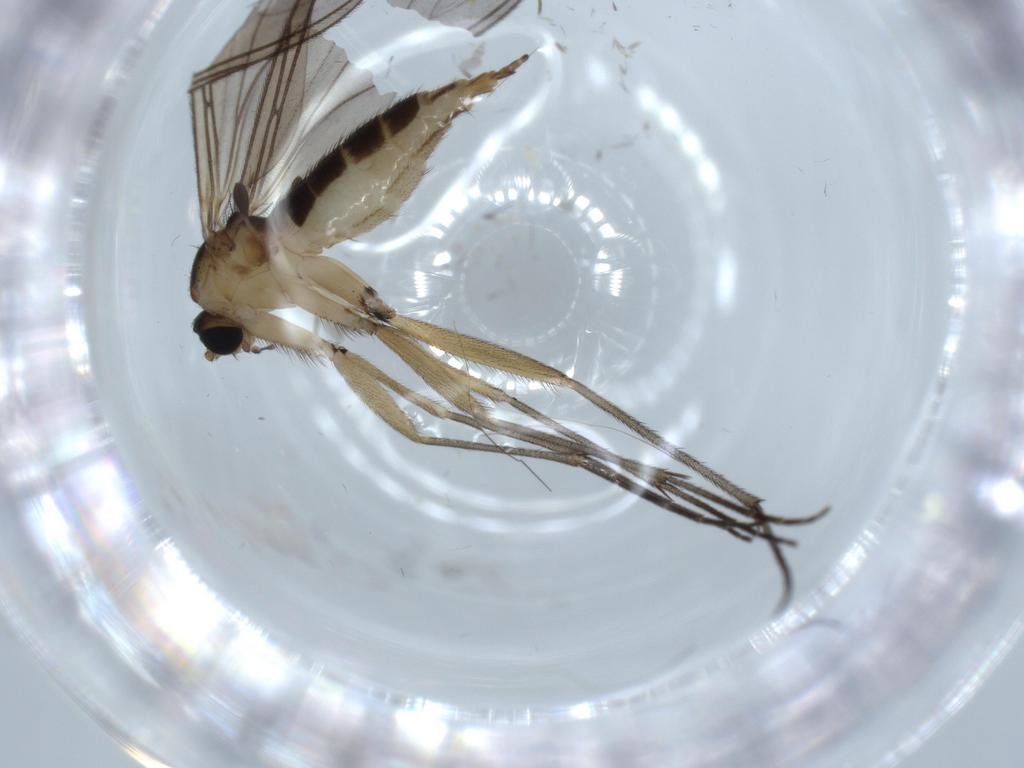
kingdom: Animalia
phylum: Arthropoda
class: Insecta
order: Diptera
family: Sciaridae
